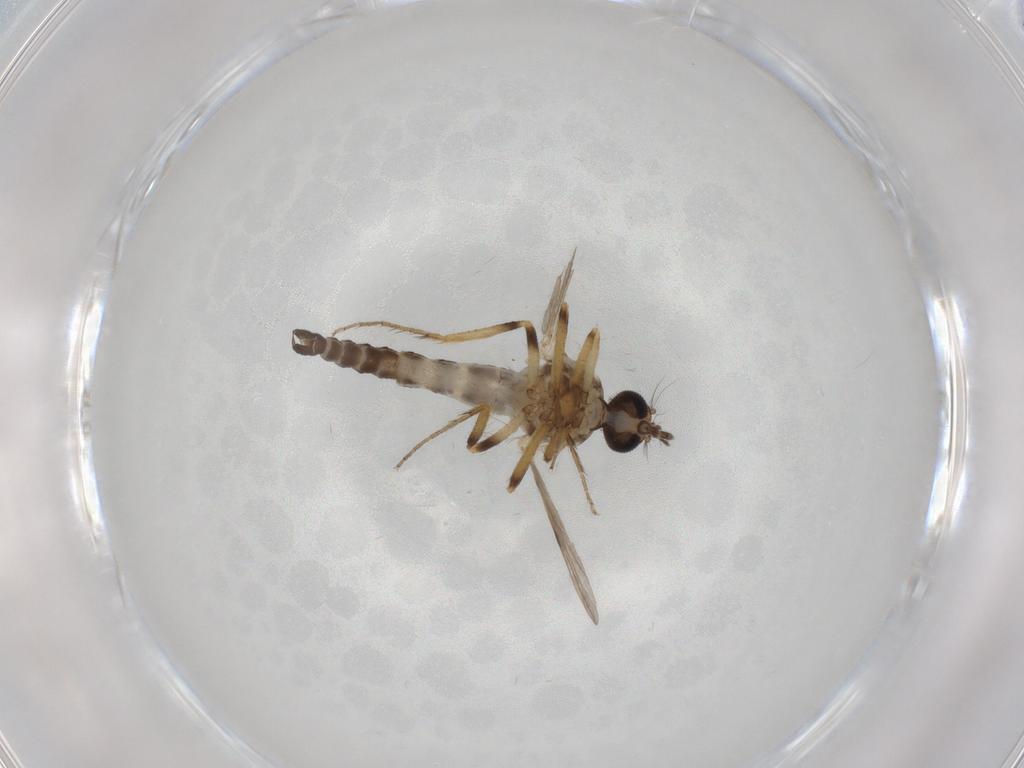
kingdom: Animalia
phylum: Arthropoda
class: Insecta
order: Diptera
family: Ceratopogonidae
